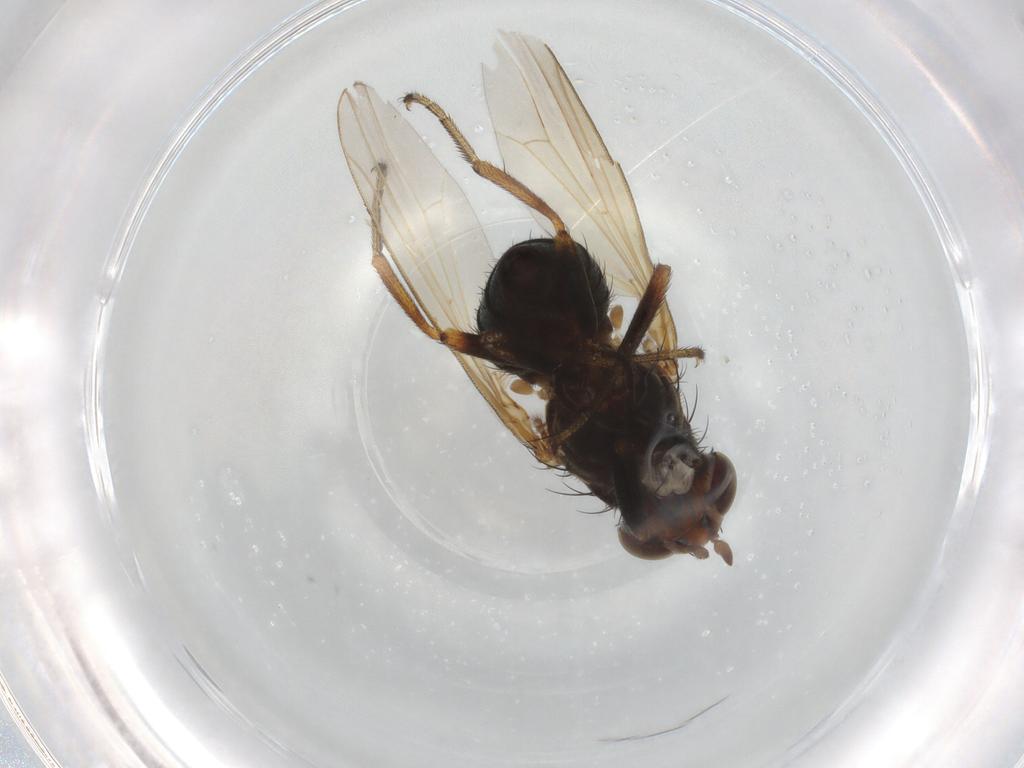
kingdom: Animalia
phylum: Arthropoda
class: Insecta
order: Diptera
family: Lauxaniidae
